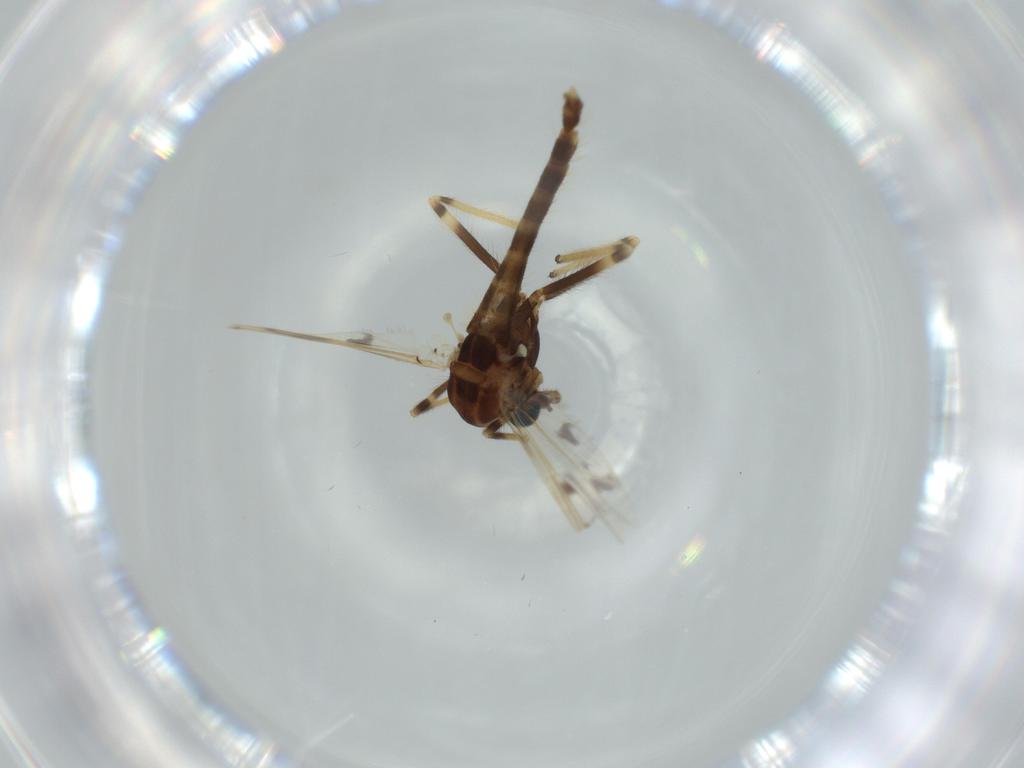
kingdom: Animalia
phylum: Arthropoda
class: Insecta
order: Diptera
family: Cecidomyiidae
